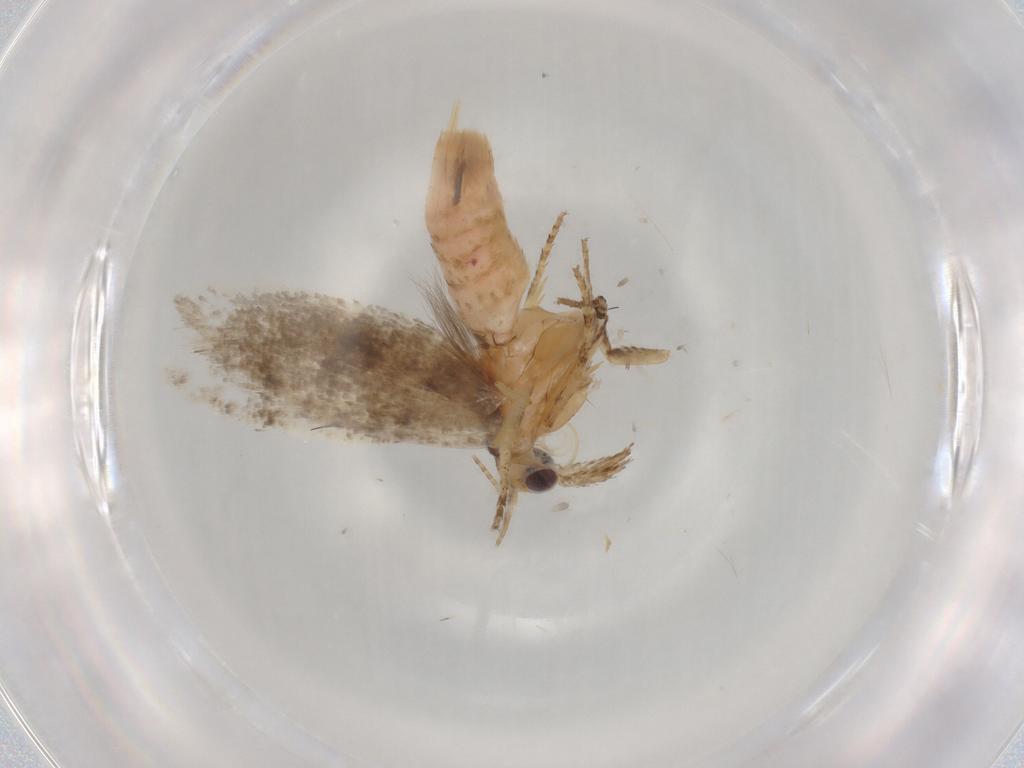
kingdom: Animalia
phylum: Arthropoda
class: Insecta
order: Lepidoptera
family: Plutellidae
